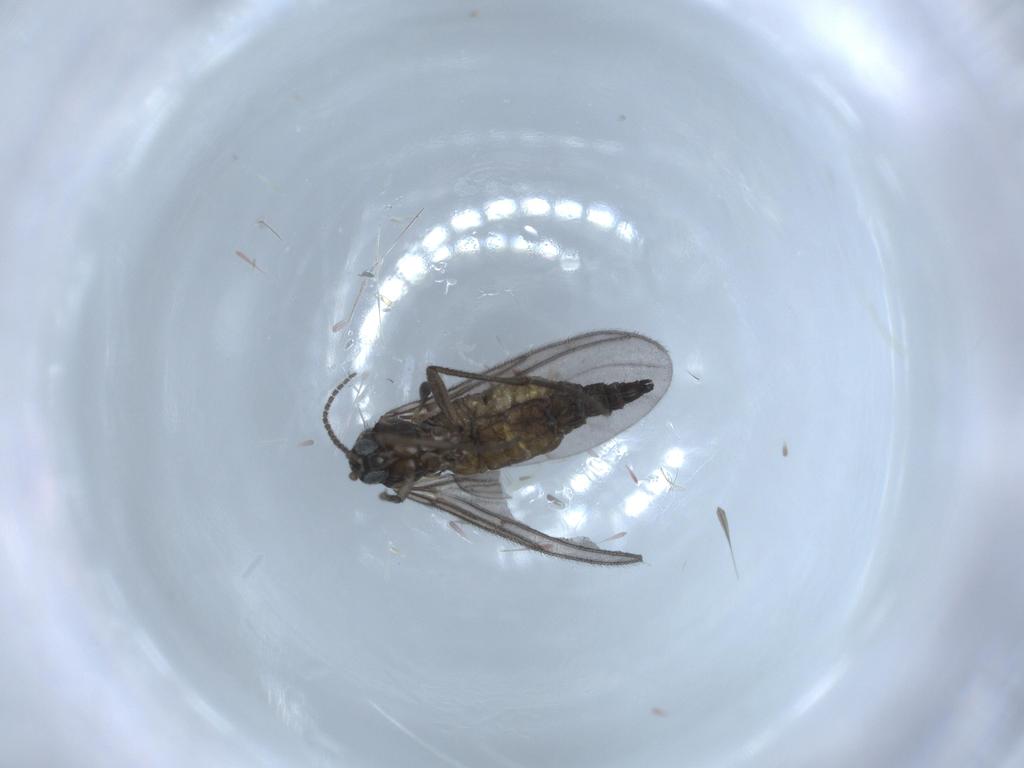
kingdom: Animalia
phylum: Arthropoda
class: Insecta
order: Diptera
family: Sciaridae
